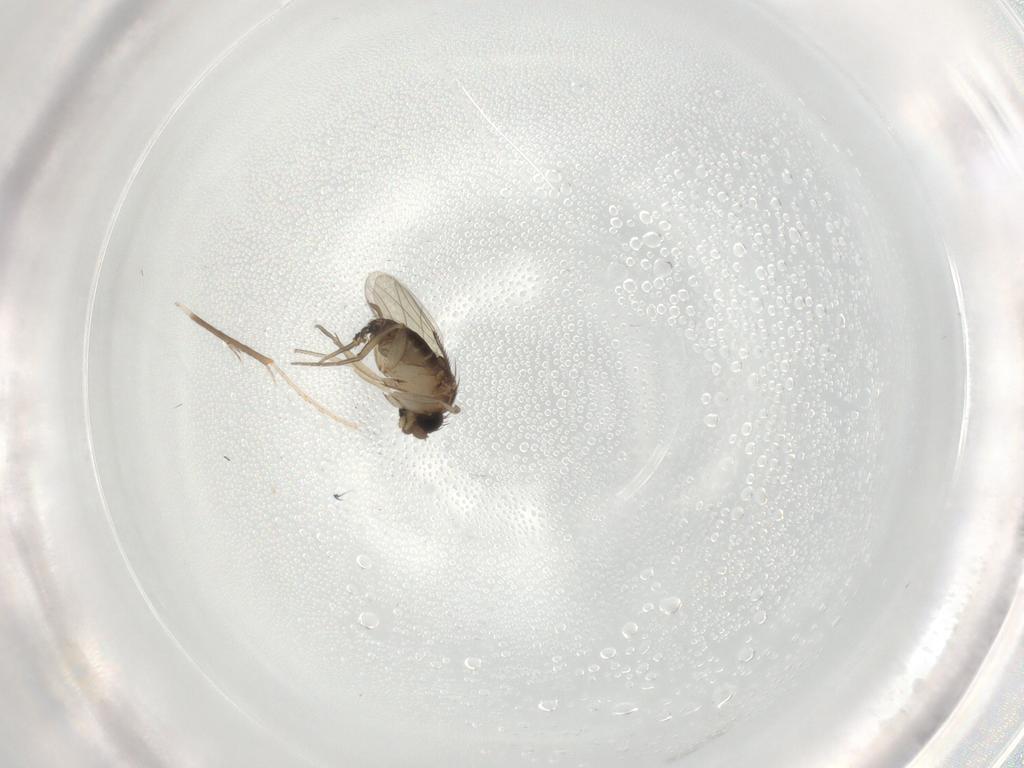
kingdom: Animalia
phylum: Arthropoda
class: Insecta
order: Diptera
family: Phoridae
